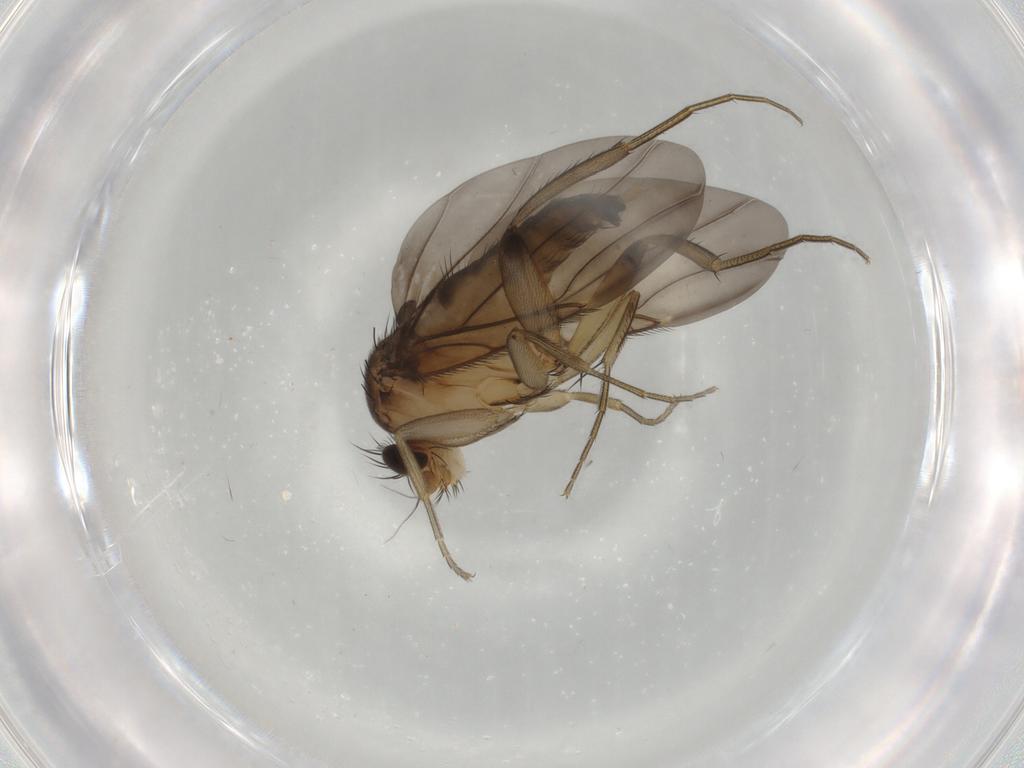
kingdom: Animalia
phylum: Arthropoda
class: Insecta
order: Diptera
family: Phoridae
